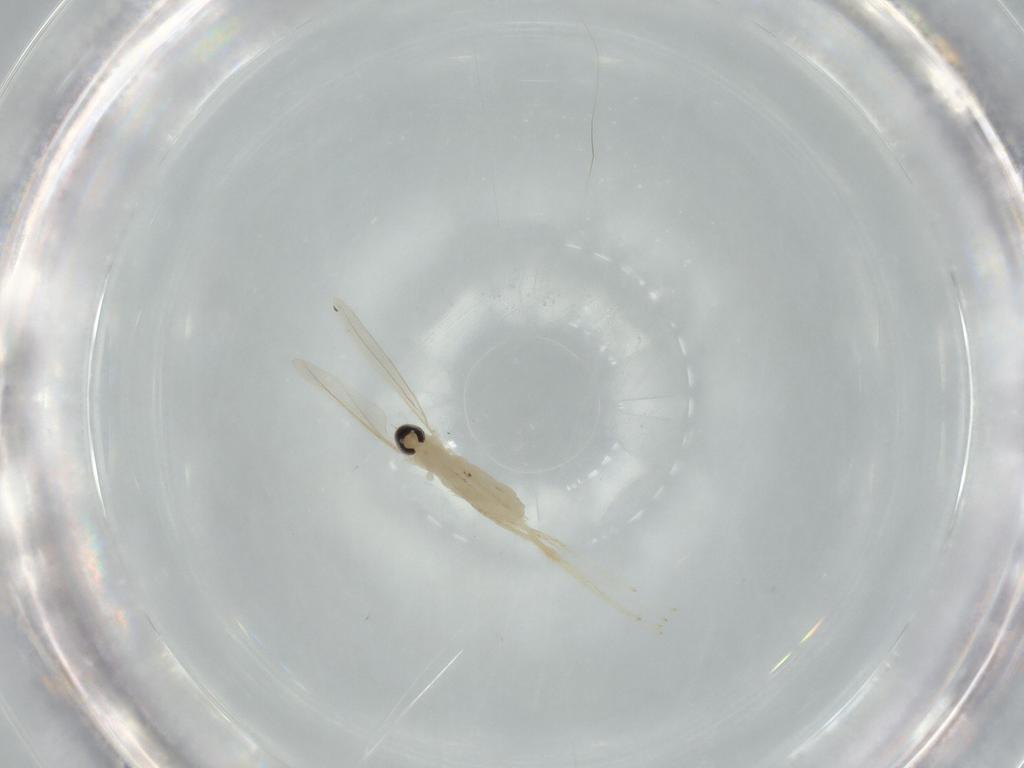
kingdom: Animalia
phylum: Arthropoda
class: Insecta
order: Diptera
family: Cecidomyiidae
